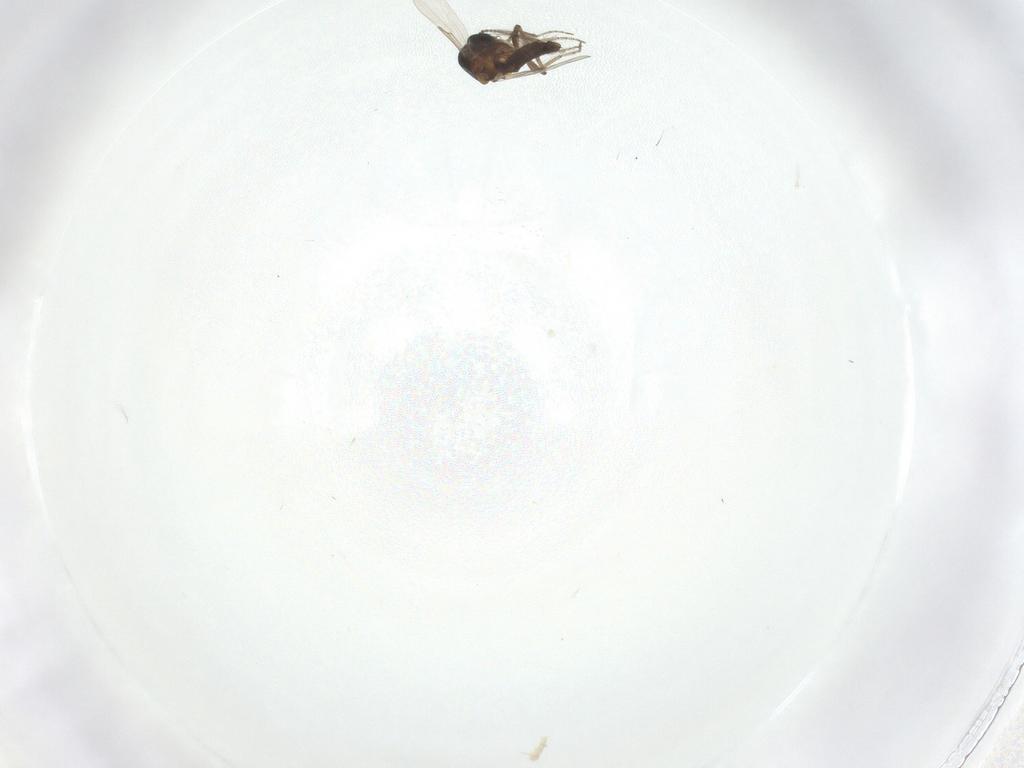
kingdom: Animalia
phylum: Arthropoda
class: Insecta
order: Diptera
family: Ceratopogonidae
